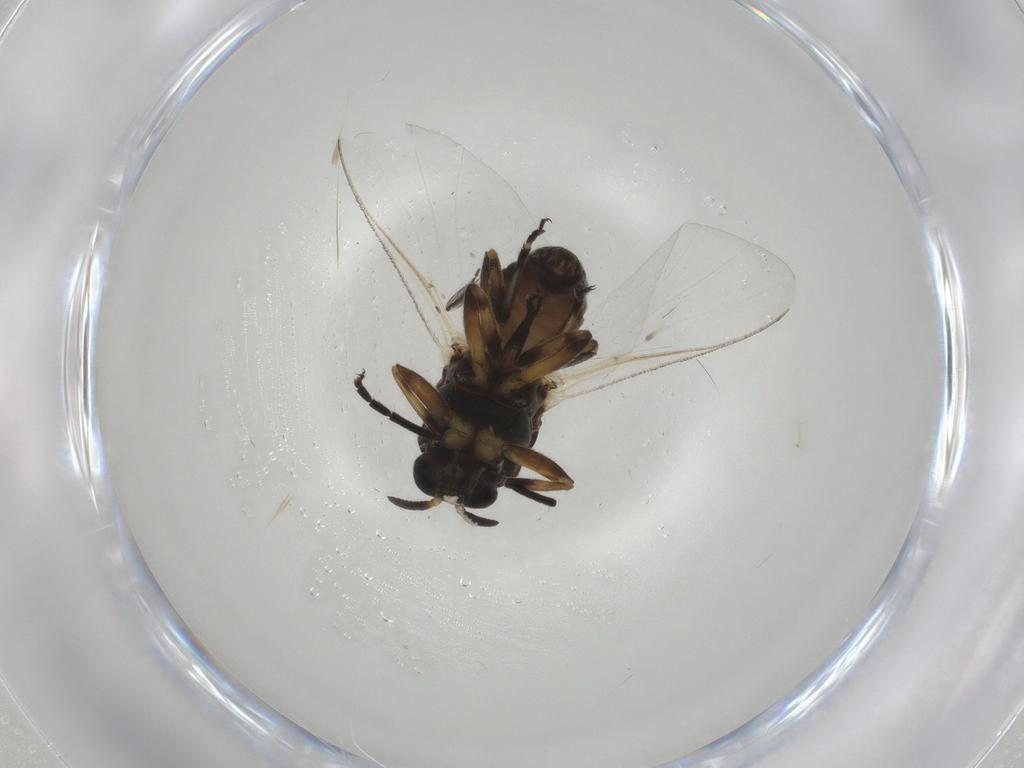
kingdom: Animalia
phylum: Arthropoda
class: Insecta
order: Diptera
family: Ceratopogonidae
